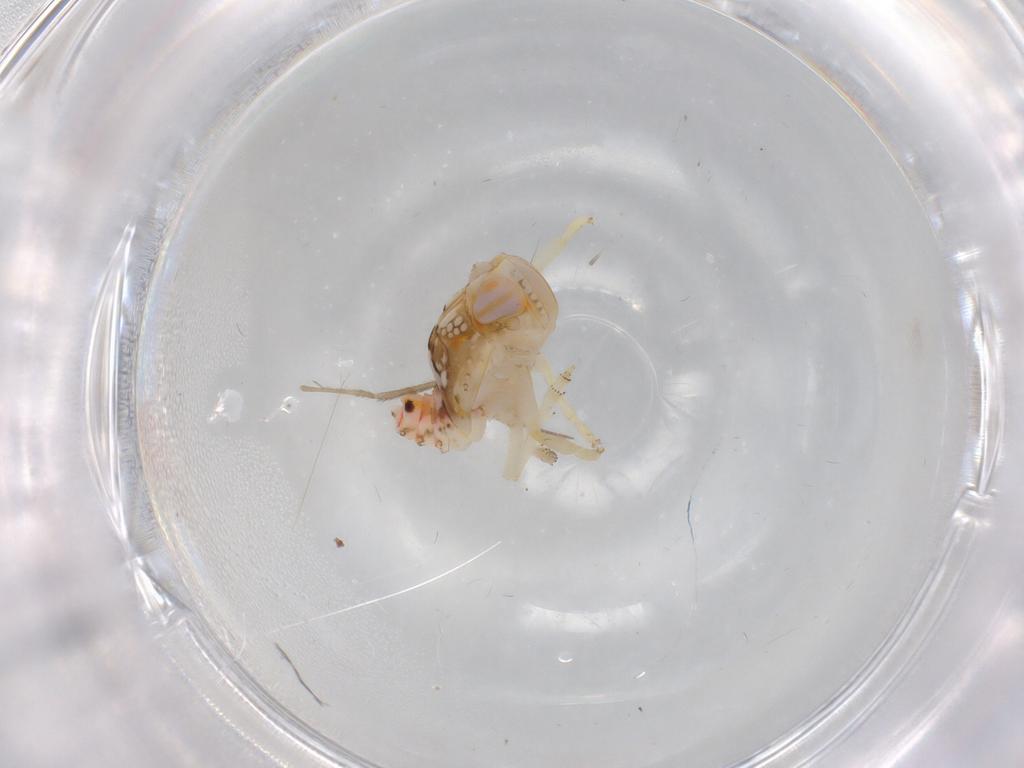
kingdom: Animalia
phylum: Arthropoda
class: Insecta
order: Hemiptera
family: Nogodinidae
